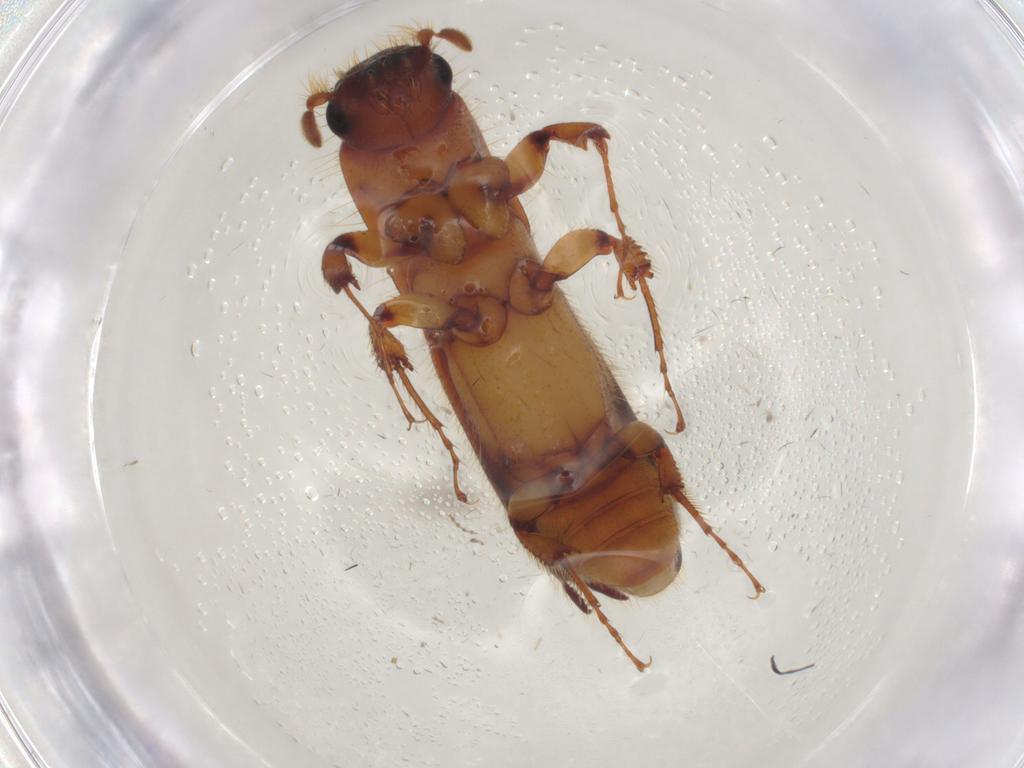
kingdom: Animalia
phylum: Arthropoda
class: Insecta
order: Coleoptera
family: Curculionidae
